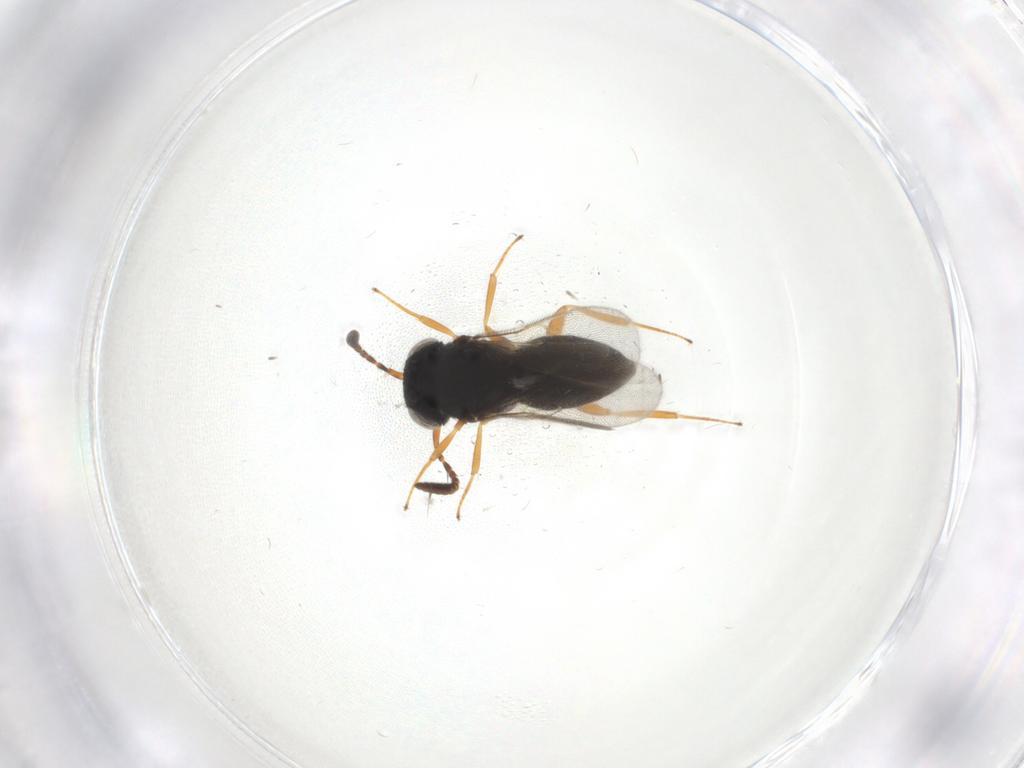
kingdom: Animalia
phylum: Arthropoda
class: Insecta
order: Hymenoptera
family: Scelionidae
